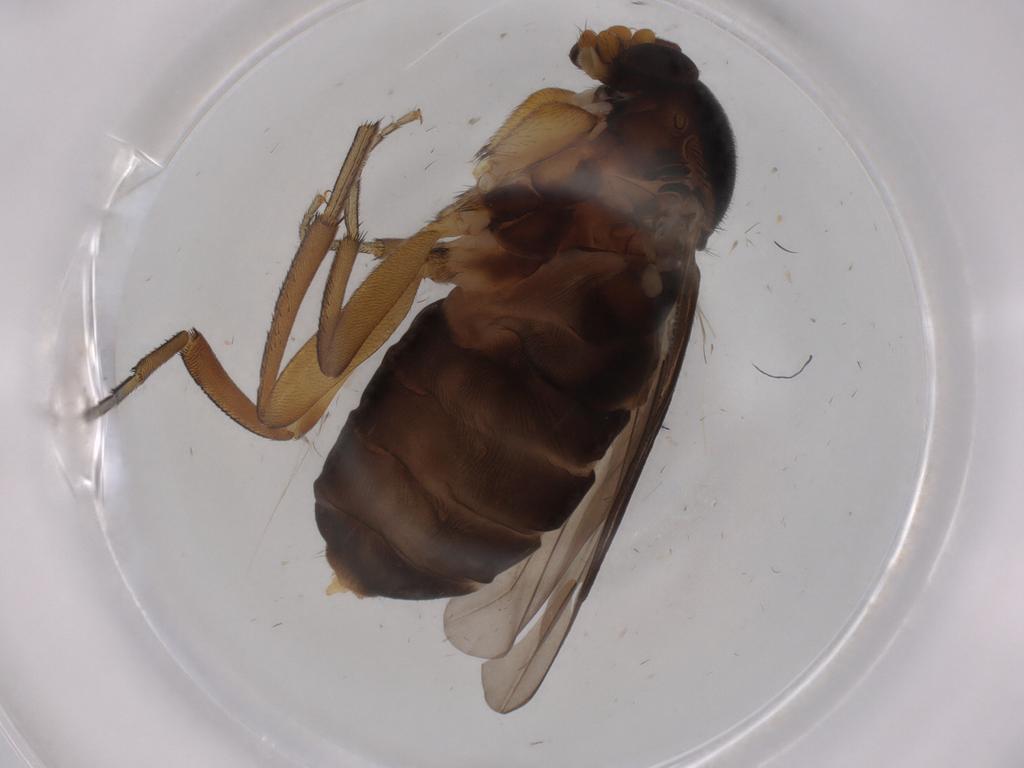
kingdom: Animalia
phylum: Arthropoda
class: Insecta
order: Diptera
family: Phoridae
